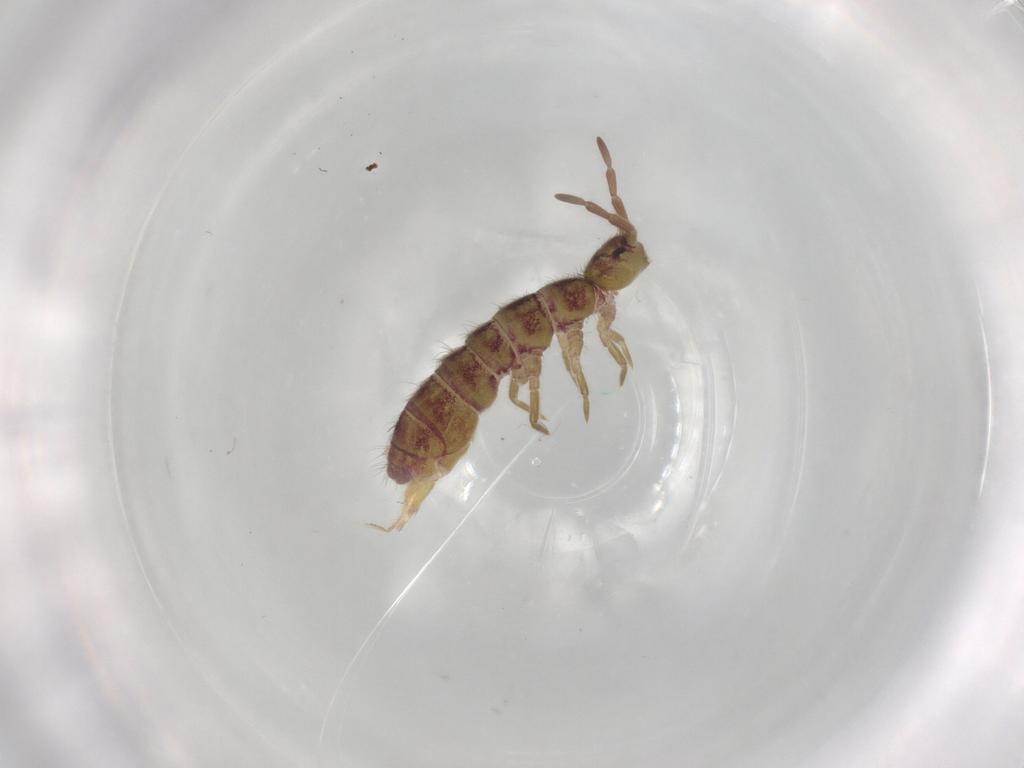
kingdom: Animalia
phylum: Arthropoda
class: Collembola
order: Entomobryomorpha
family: Isotomidae
